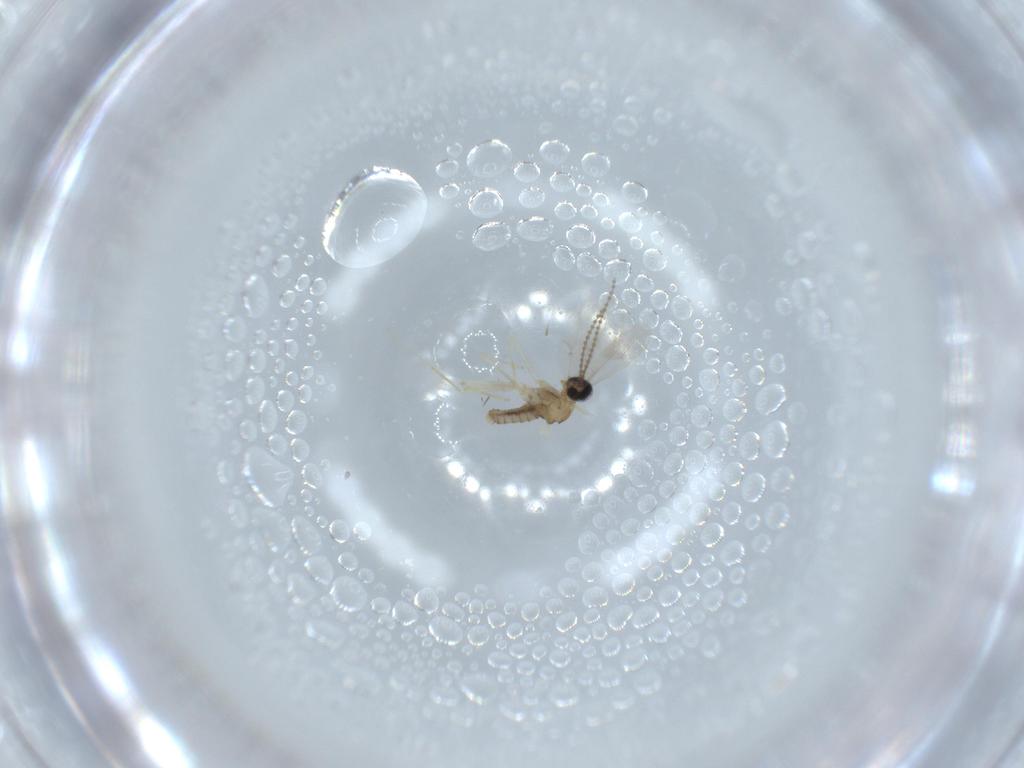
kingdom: Animalia
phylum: Arthropoda
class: Insecta
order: Diptera
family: Cecidomyiidae
